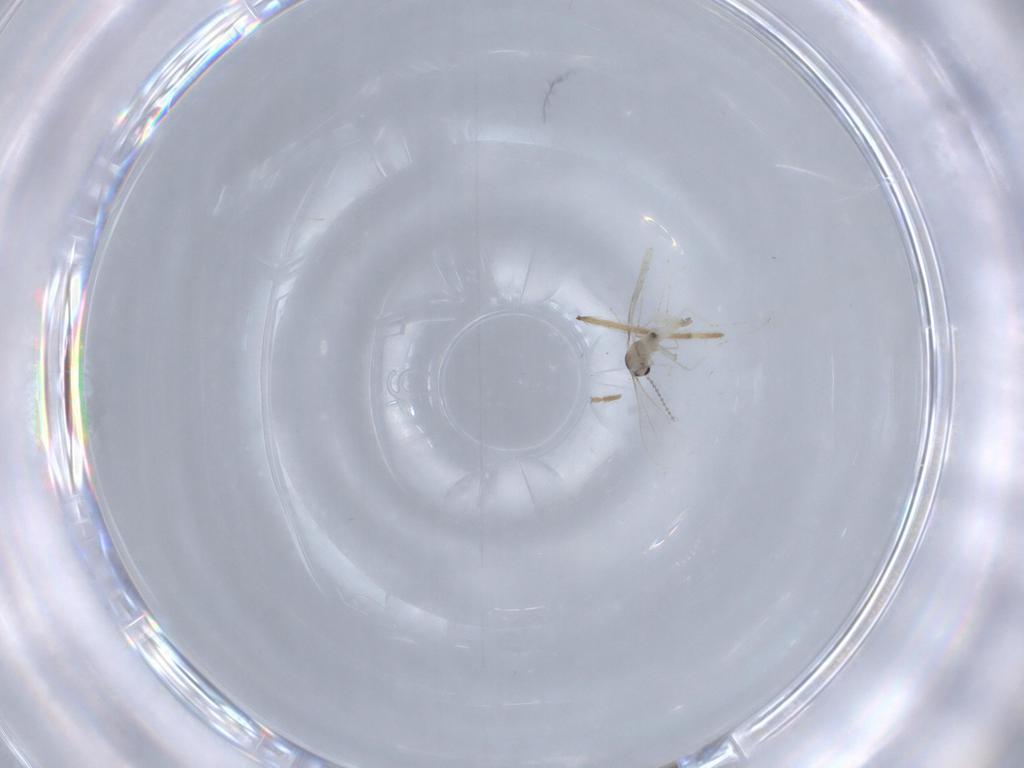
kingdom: Animalia
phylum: Arthropoda
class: Insecta
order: Diptera
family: Cecidomyiidae
